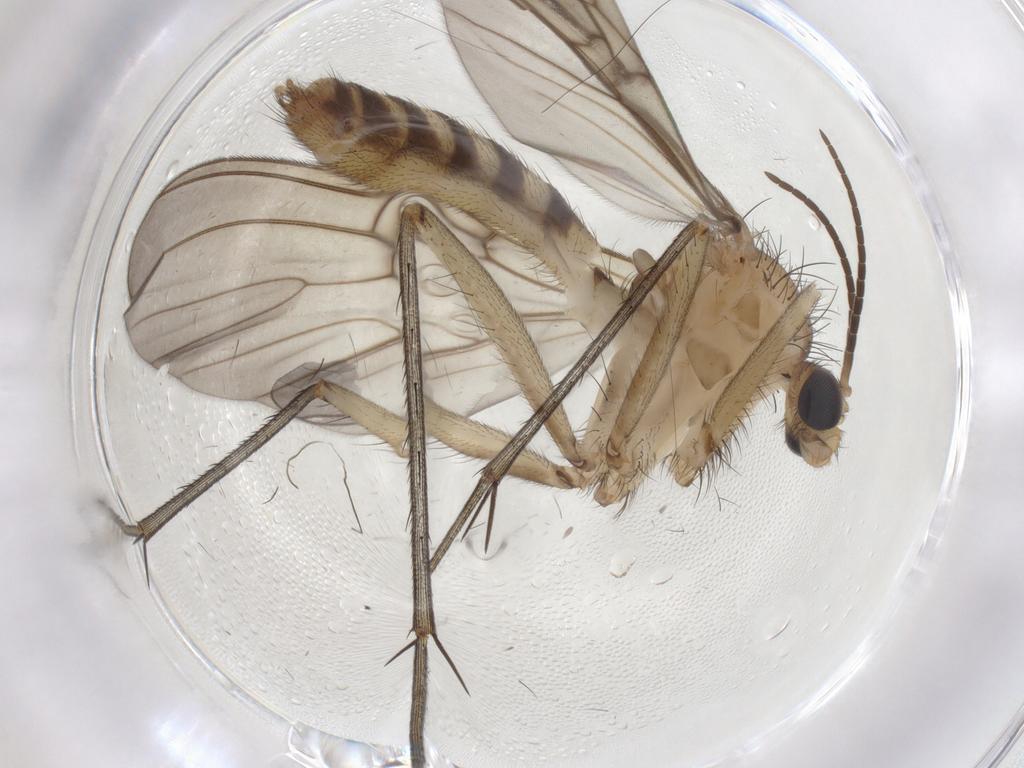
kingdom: Animalia
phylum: Arthropoda
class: Insecta
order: Diptera
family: Mycetophilidae
